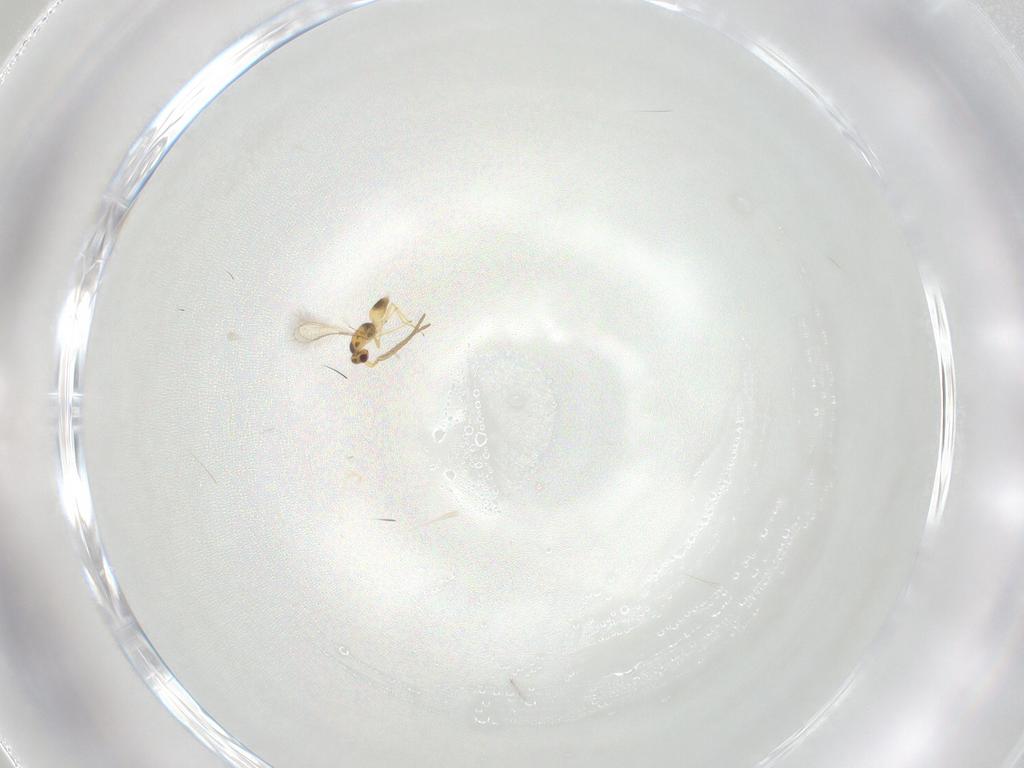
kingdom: Animalia
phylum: Arthropoda
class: Insecta
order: Hymenoptera
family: Mymaridae
